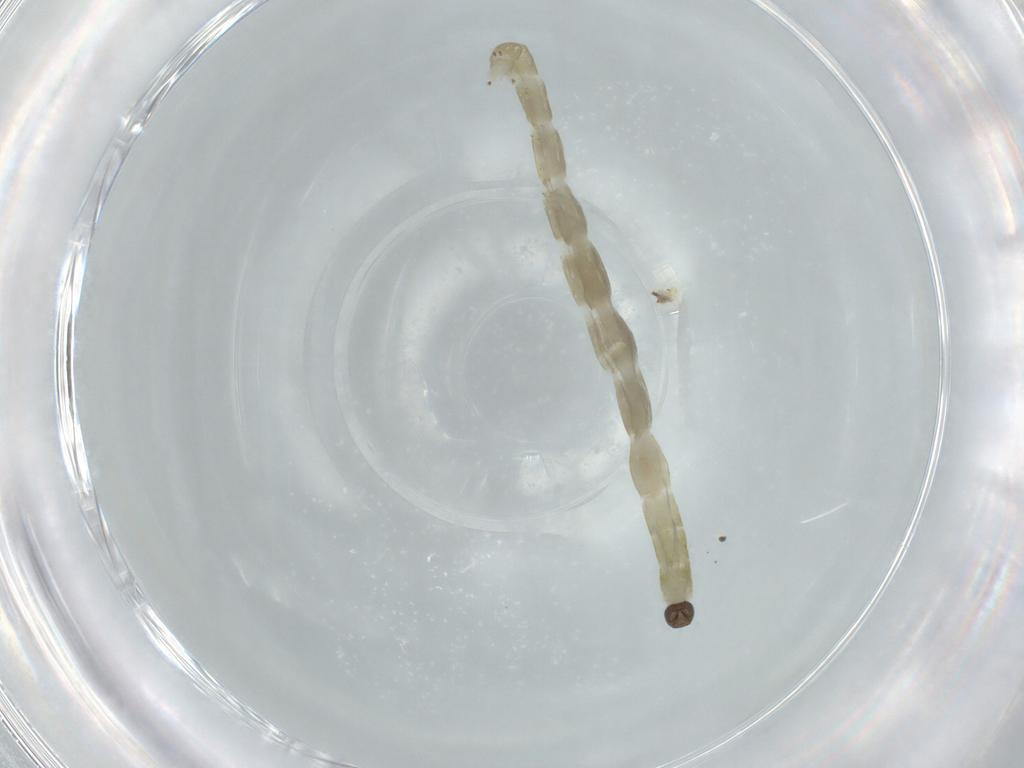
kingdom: Animalia
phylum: Arthropoda
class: Insecta
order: Diptera
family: Chironomidae
